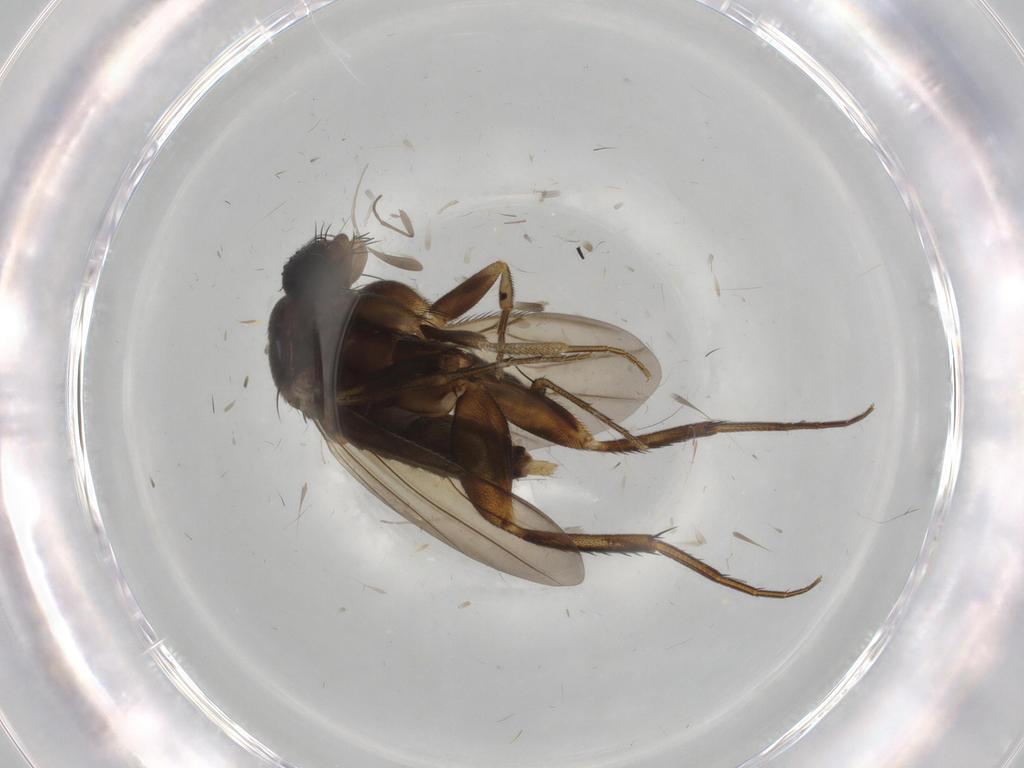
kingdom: Animalia
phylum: Arthropoda
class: Insecta
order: Diptera
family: Phoridae
